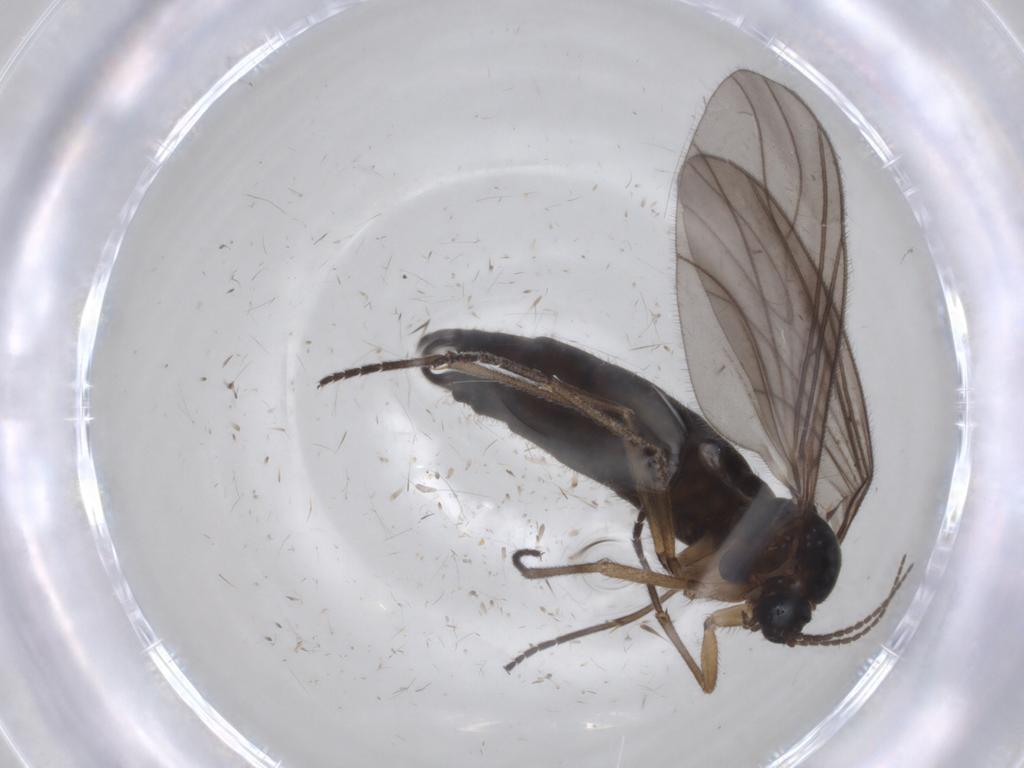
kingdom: Animalia
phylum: Arthropoda
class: Insecta
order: Diptera
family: Sciaridae
